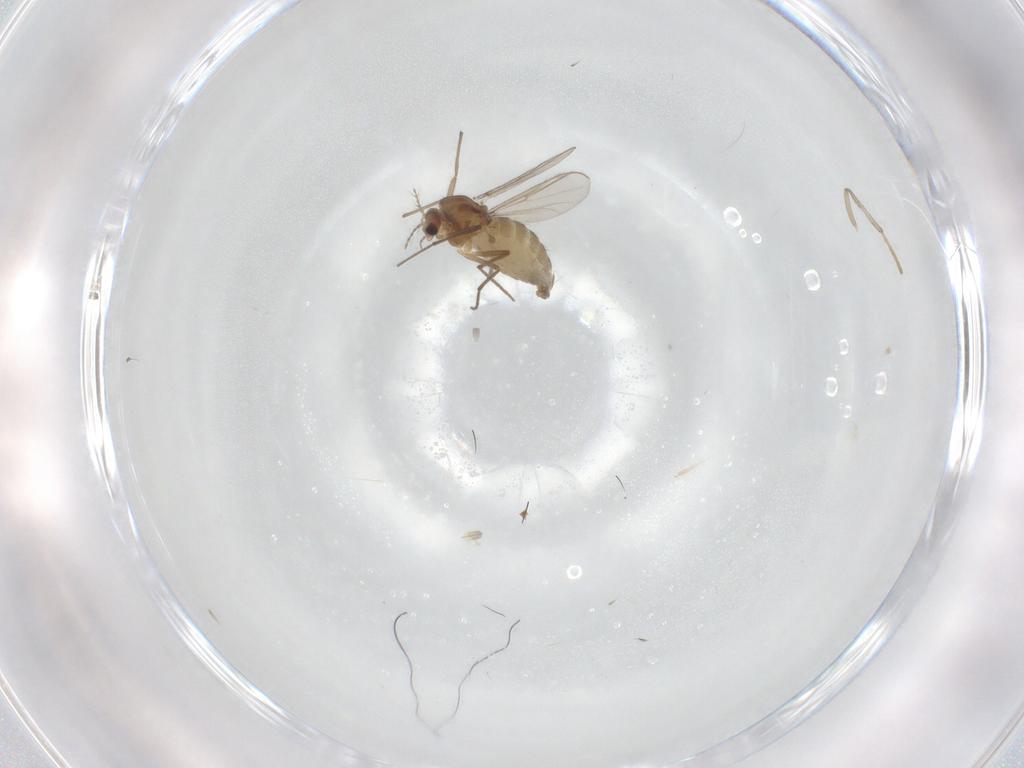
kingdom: Animalia
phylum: Arthropoda
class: Insecta
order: Diptera
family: Chironomidae
